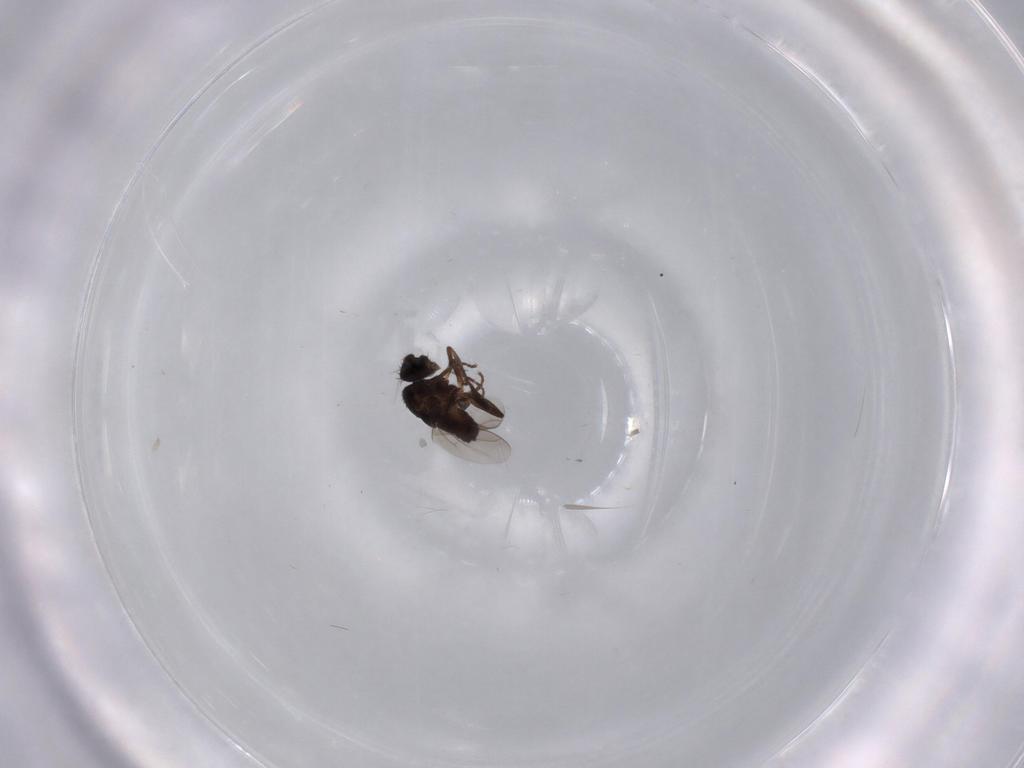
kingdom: Animalia
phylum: Arthropoda
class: Insecta
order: Diptera
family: Sphaeroceridae
